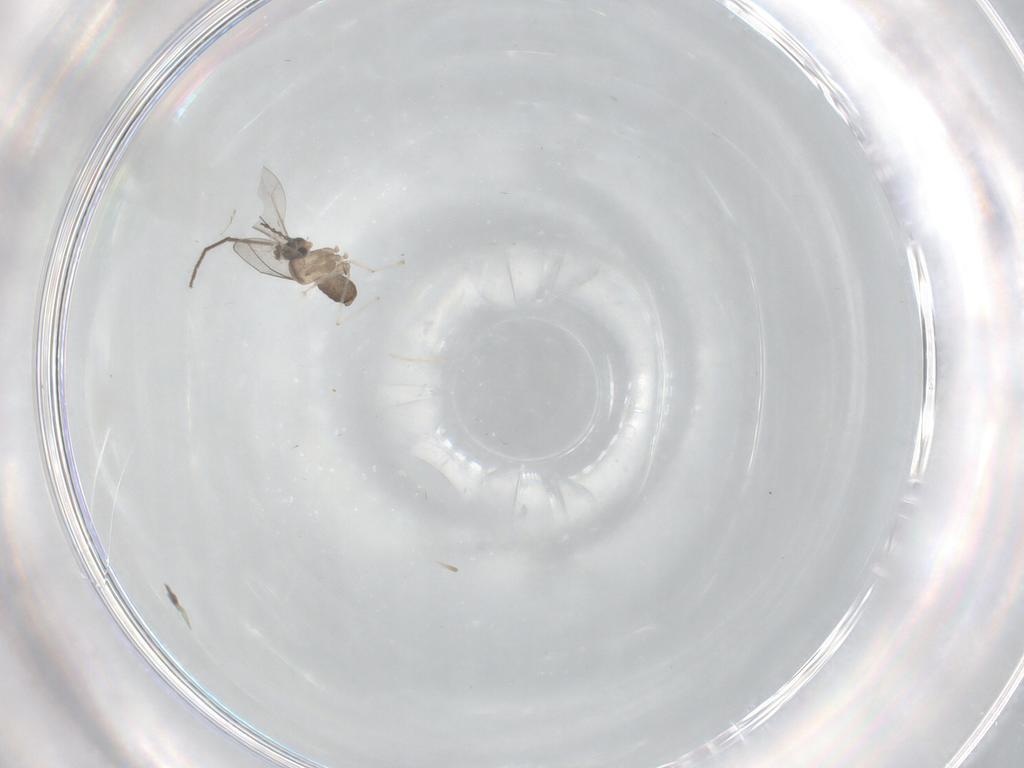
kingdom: Animalia
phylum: Arthropoda
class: Insecta
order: Diptera
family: Cecidomyiidae
